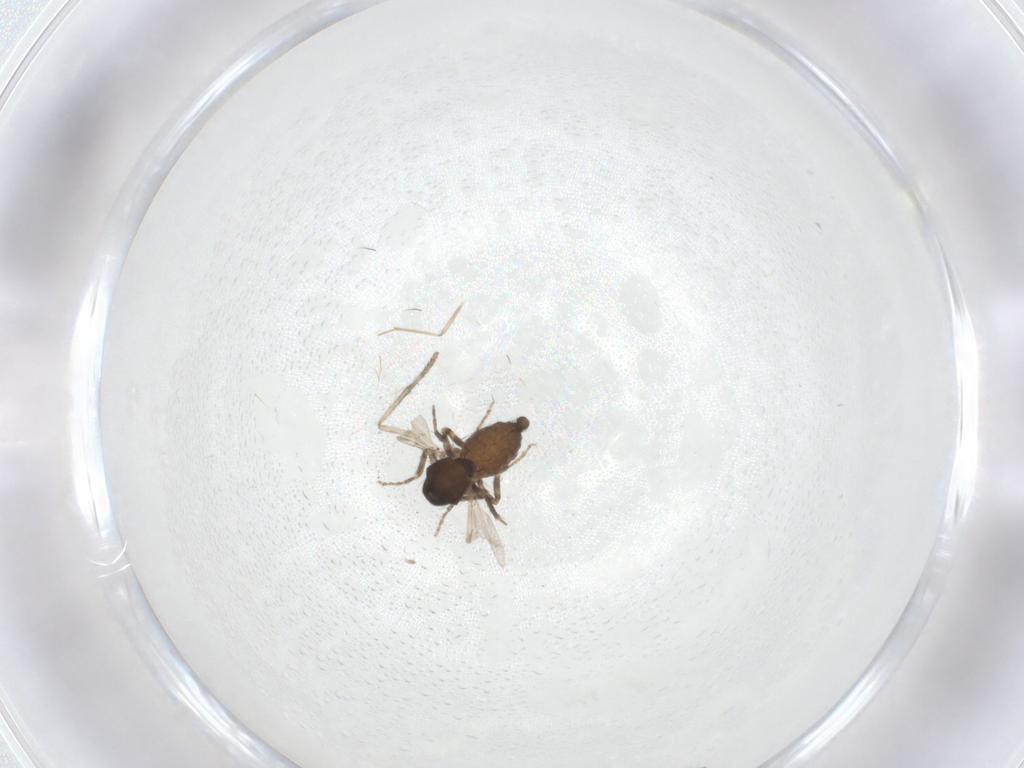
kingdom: Animalia
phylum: Arthropoda
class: Insecta
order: Diptera
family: Ceratopogonidae
